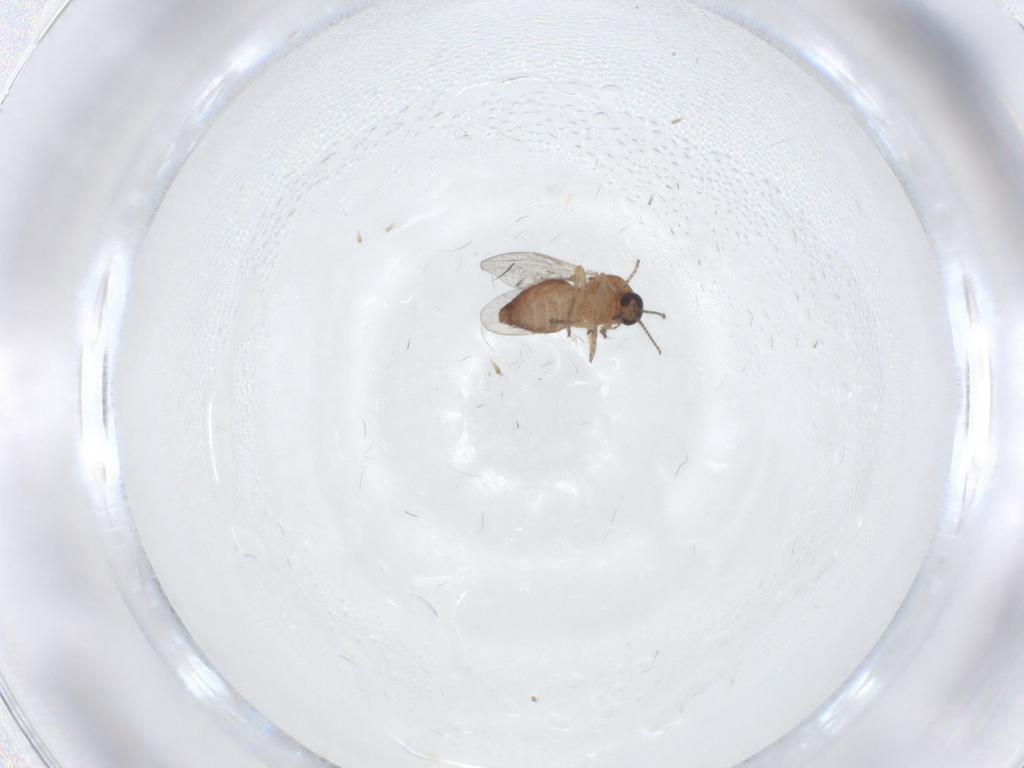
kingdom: Animalia
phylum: Arthropoda
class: Insecta
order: Diptera
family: Ceratopogonidae
